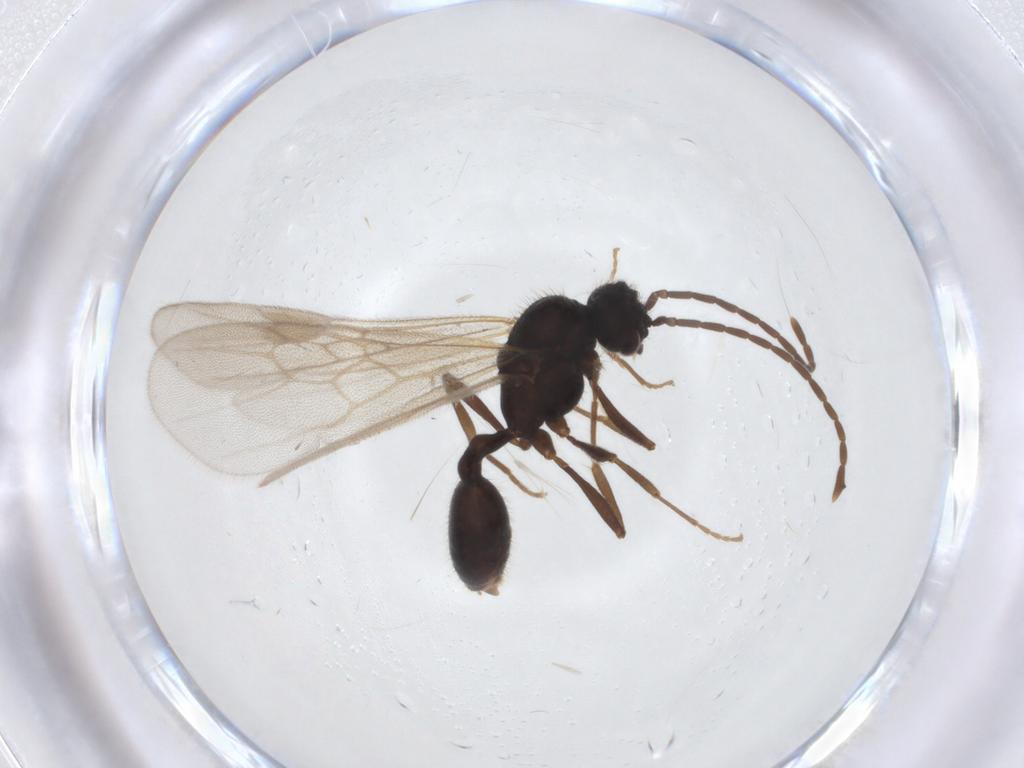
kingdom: Animalia
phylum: Arthropoda
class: Insecta
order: Hymenoptera
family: Formicidae
